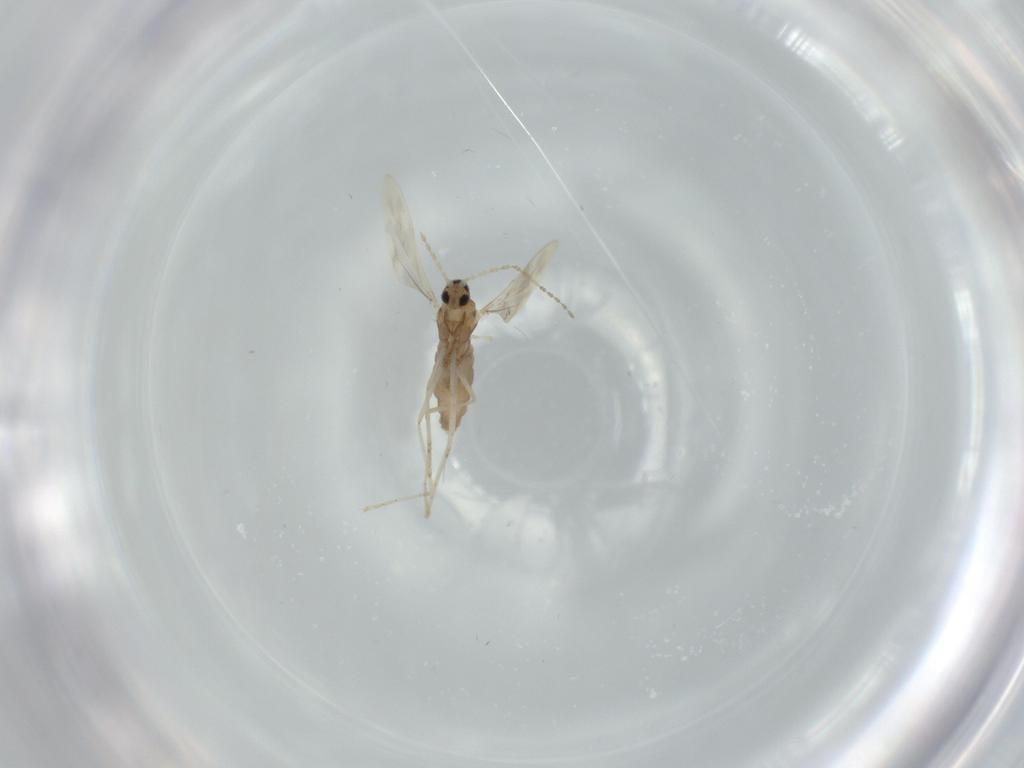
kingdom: Animalia
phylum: Arthropoda
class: Insecta
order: Diptera
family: Cecidomyiidae
